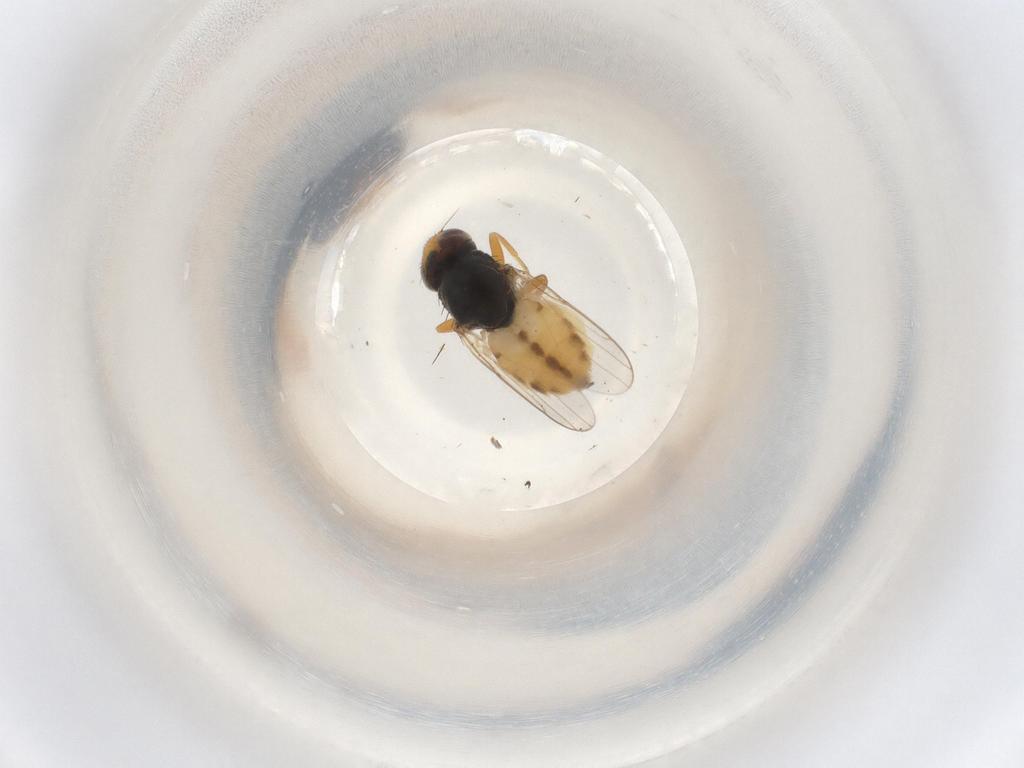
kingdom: Animalia
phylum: Arthropoda
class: Insecta
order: Diptera
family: Chloropidae
